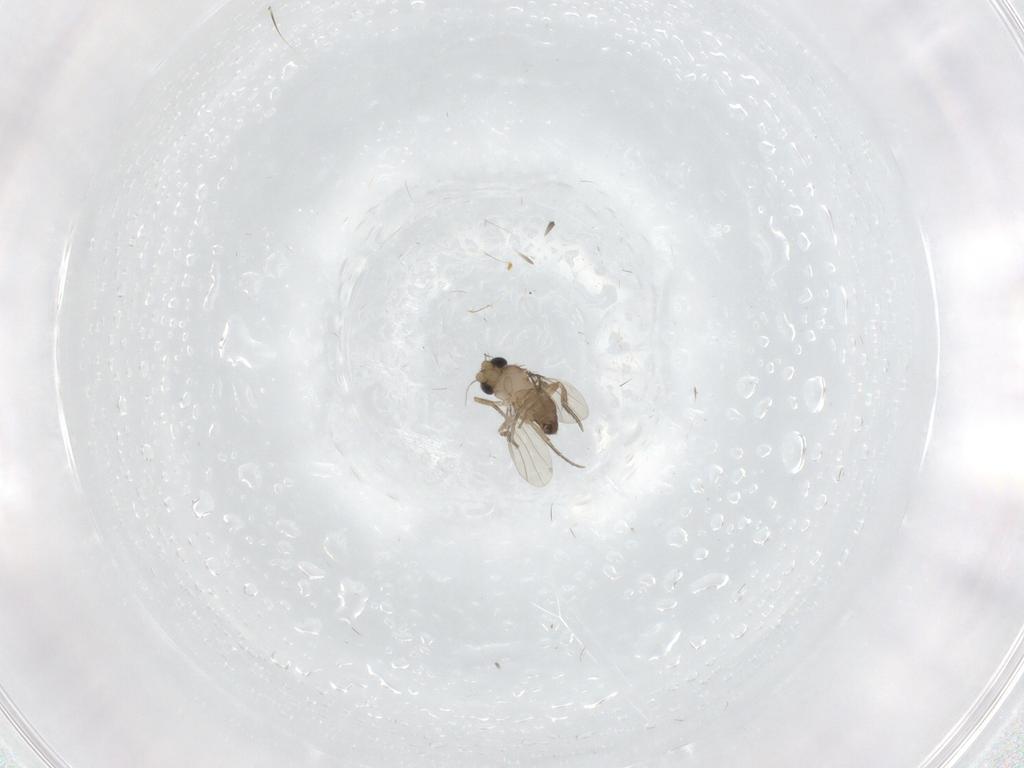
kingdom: Animalia
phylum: Arthropoda
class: Insecta
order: Diptera
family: Phoridae
